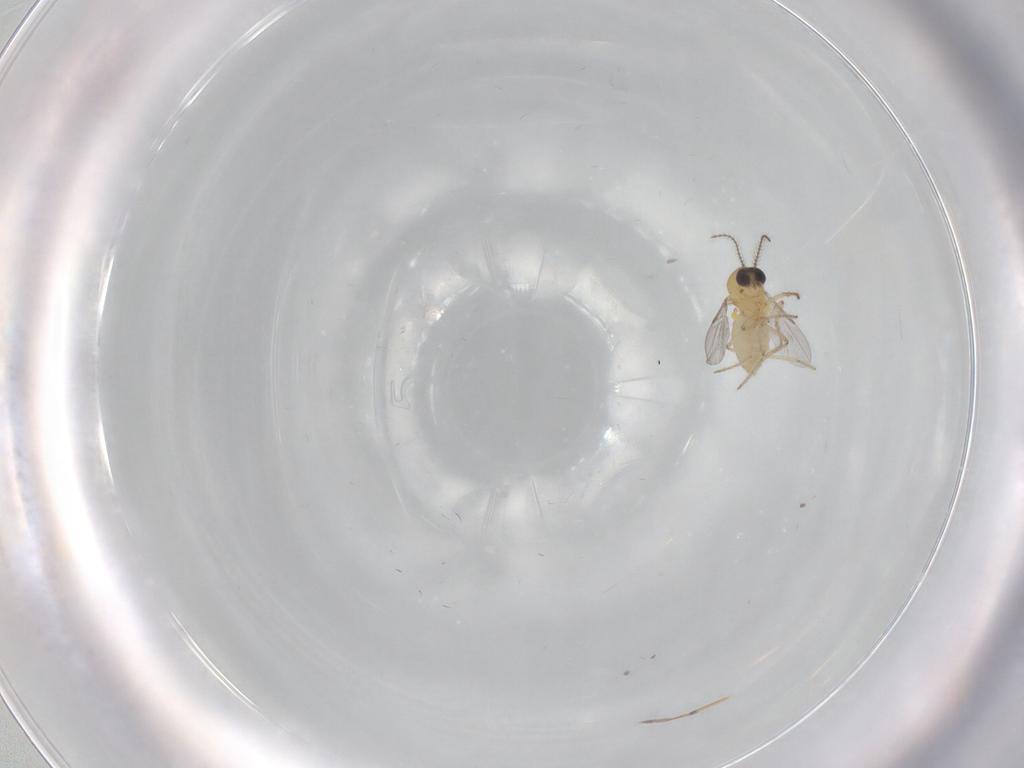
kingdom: Animalia
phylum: Arthropoda
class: Insecta
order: Diptera
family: Ceratopogonidae
